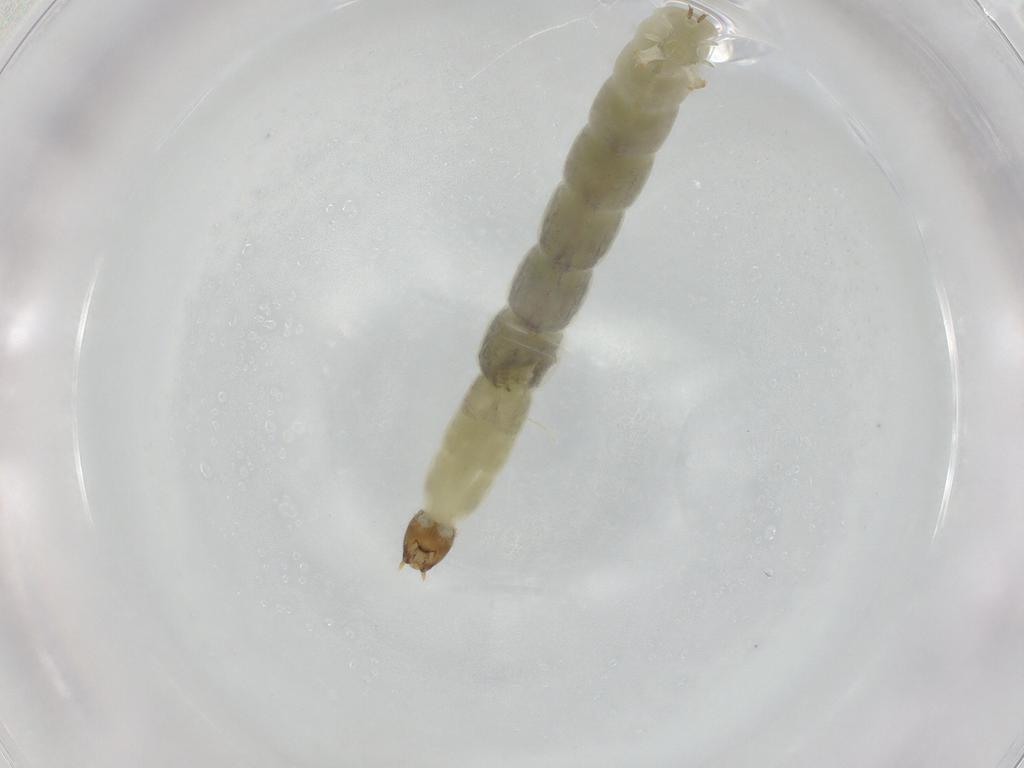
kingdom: Animalia
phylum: Arthropoda
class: Insecta
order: Diptera
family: Chironomidae
